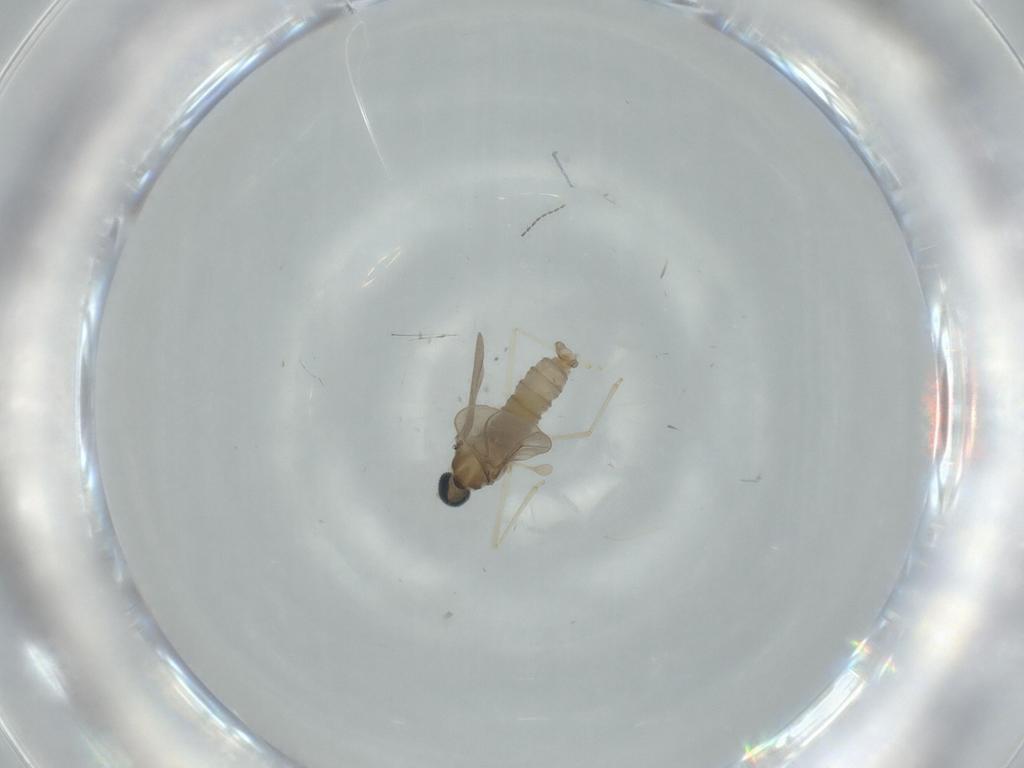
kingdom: Animalia
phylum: Arthropoda
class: Insecta
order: Diptera
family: Cecidomyiidae
